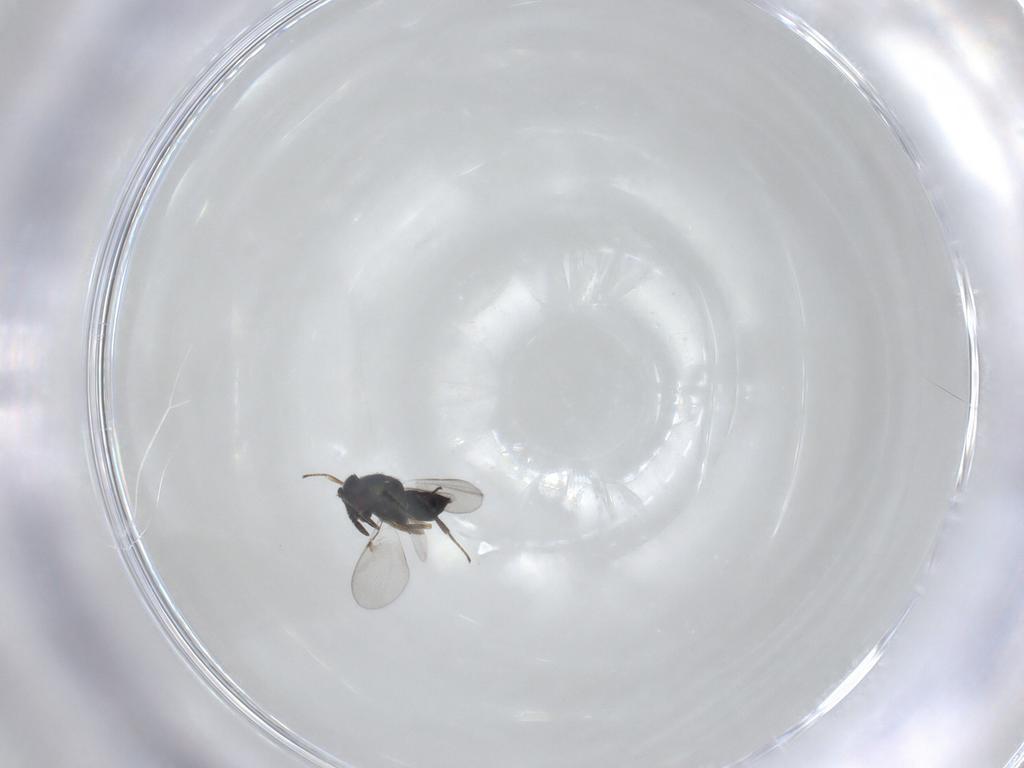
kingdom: Animalia
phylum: Arthropoda
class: Insecta
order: Hymenoptera
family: Encyrtidae
